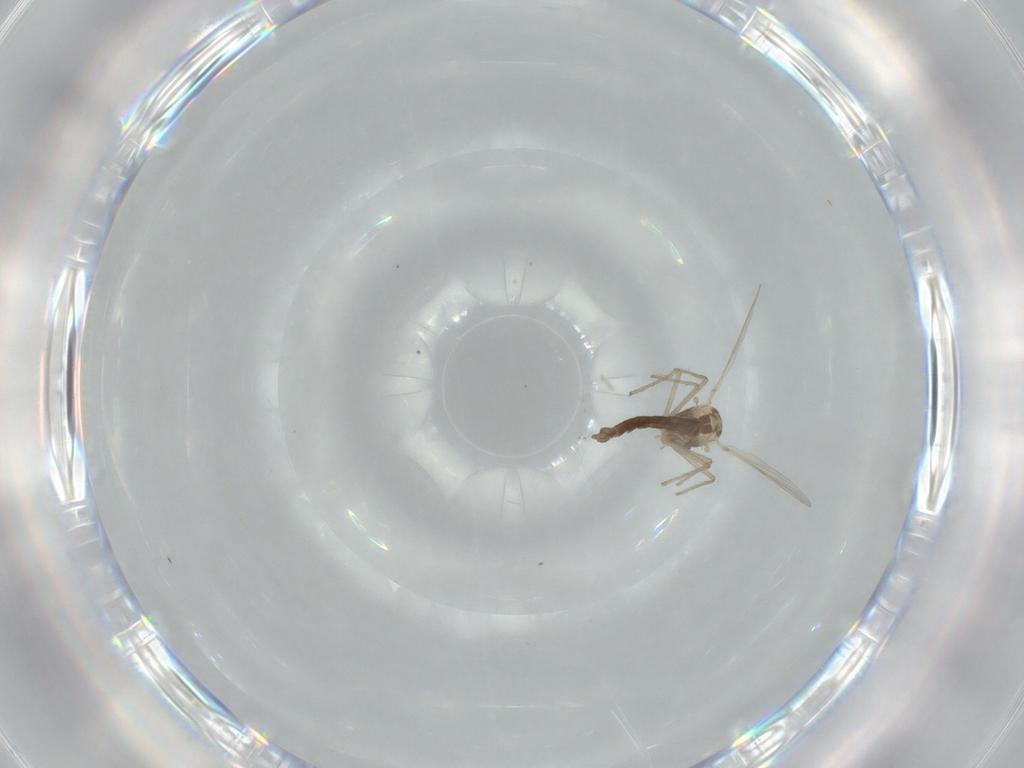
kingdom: Animalia
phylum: Arthropoda
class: Insecta
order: Diptera
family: Chironomidae
